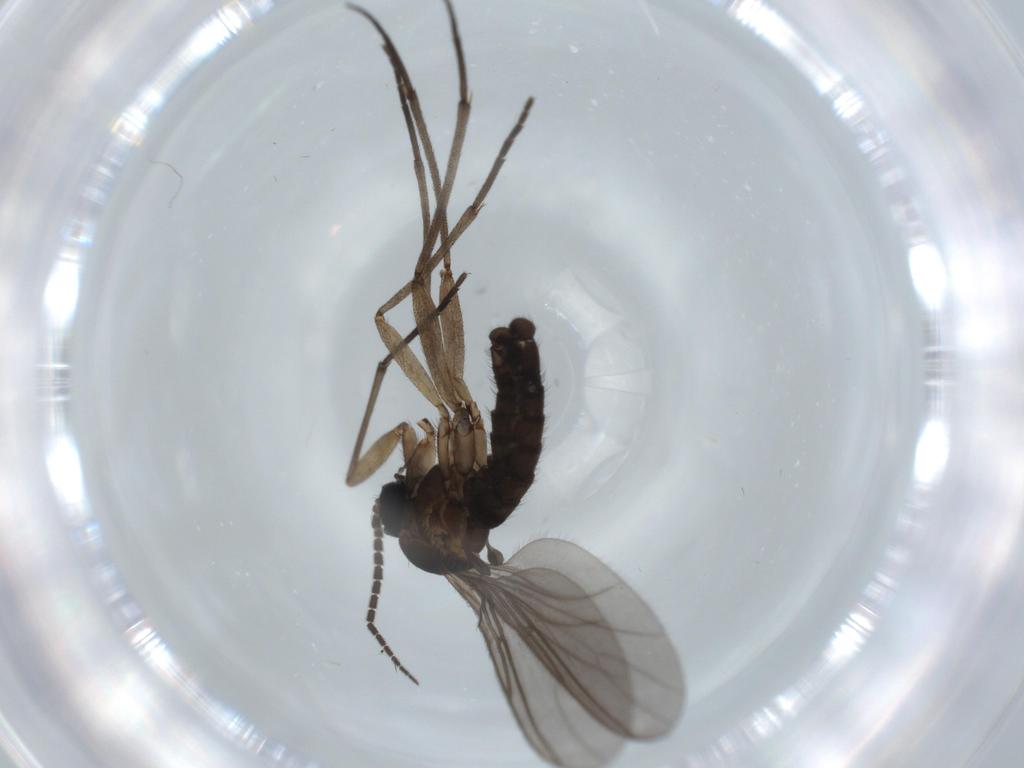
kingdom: Animalia
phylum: Arthropoda
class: Insecta
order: Diptera
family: Sciaridae
